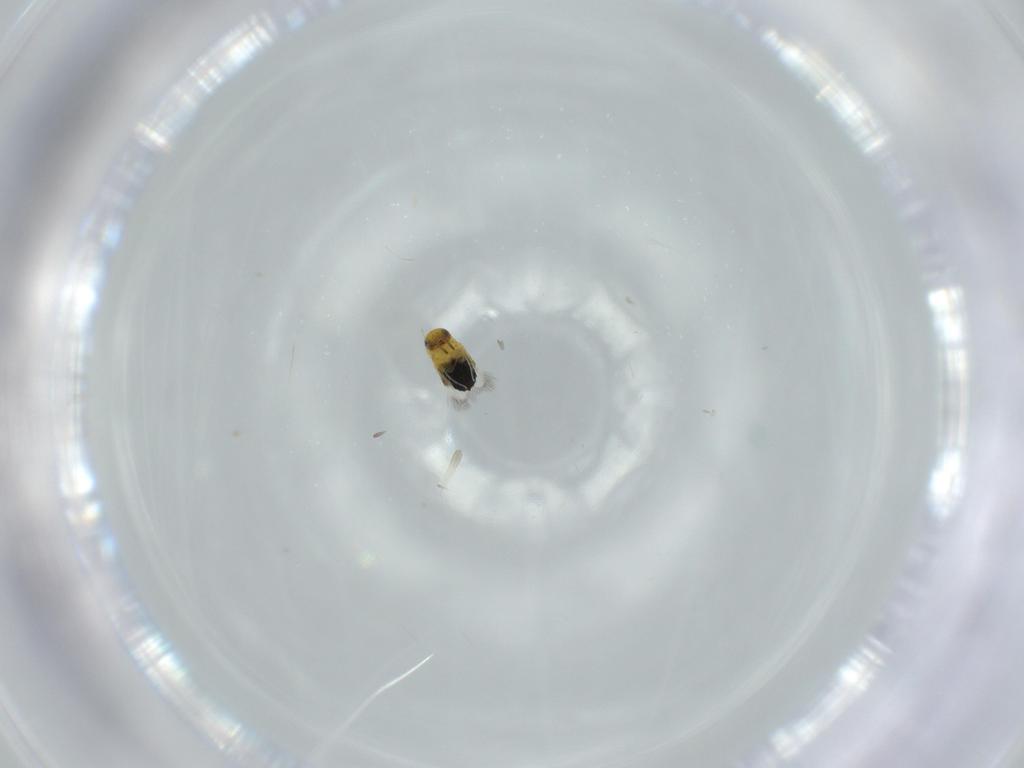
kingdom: Animalia
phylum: Arthropoda
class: Insecta
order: Hymenoptera
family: Signiphoridae
